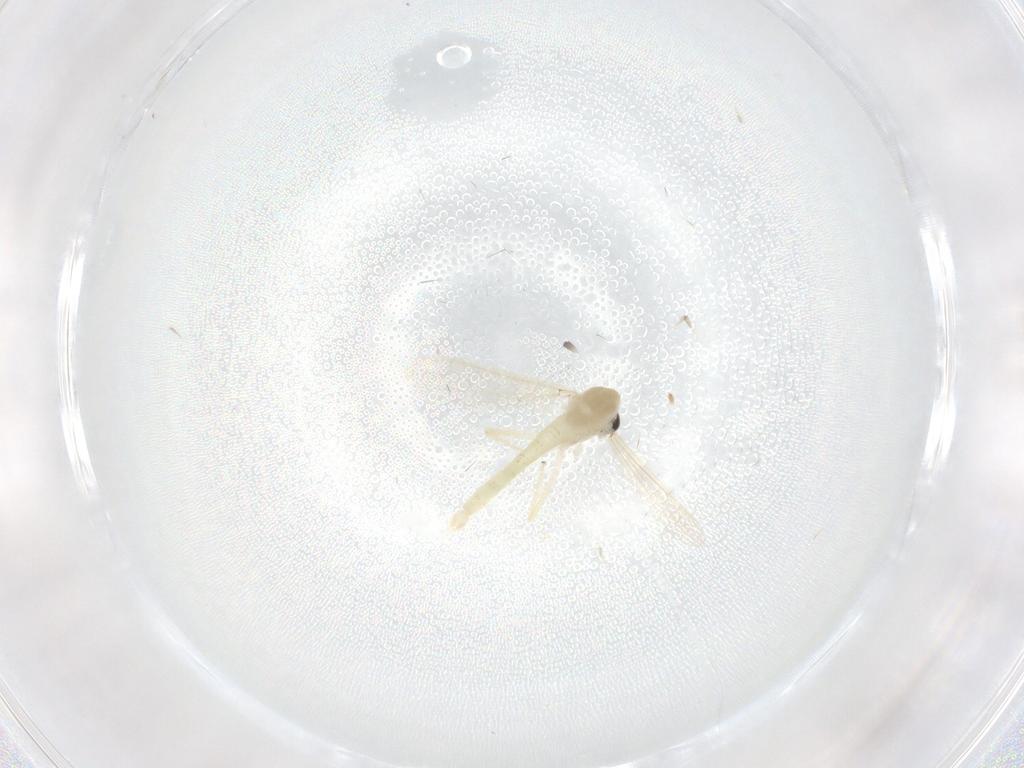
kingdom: Animalia
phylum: Arthropoda
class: Insecta
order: Diptera
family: Chironomidae
